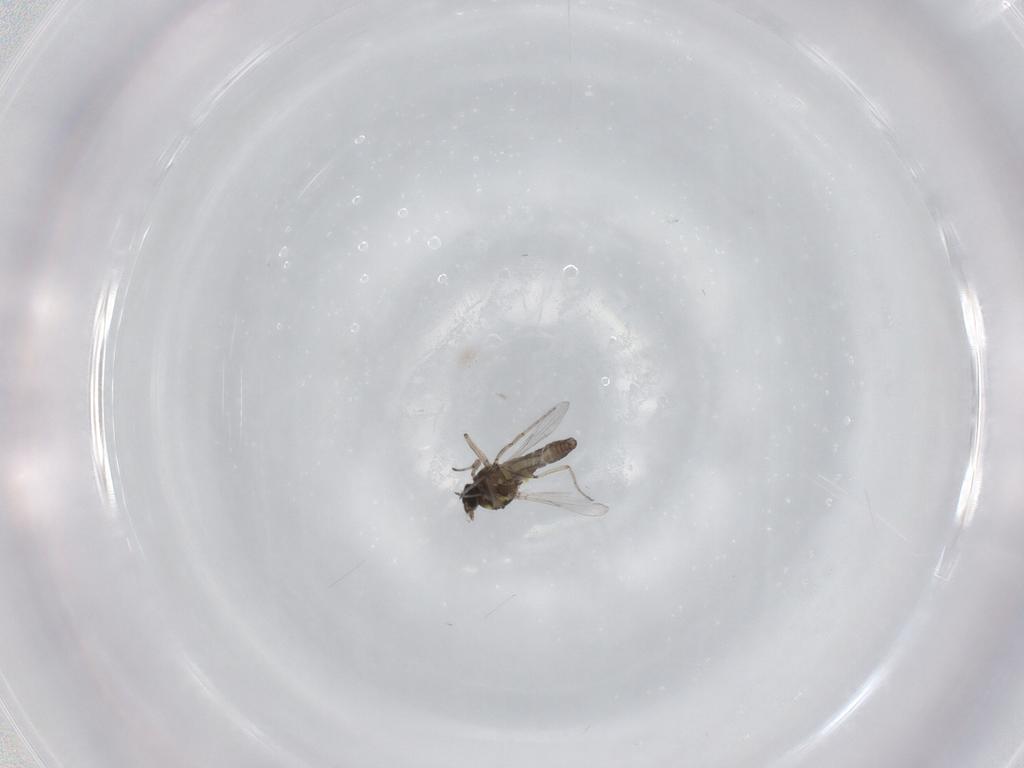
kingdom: Animalia
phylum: Arthropoda
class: Insecta
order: Diptera
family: Ceratopogonidae
